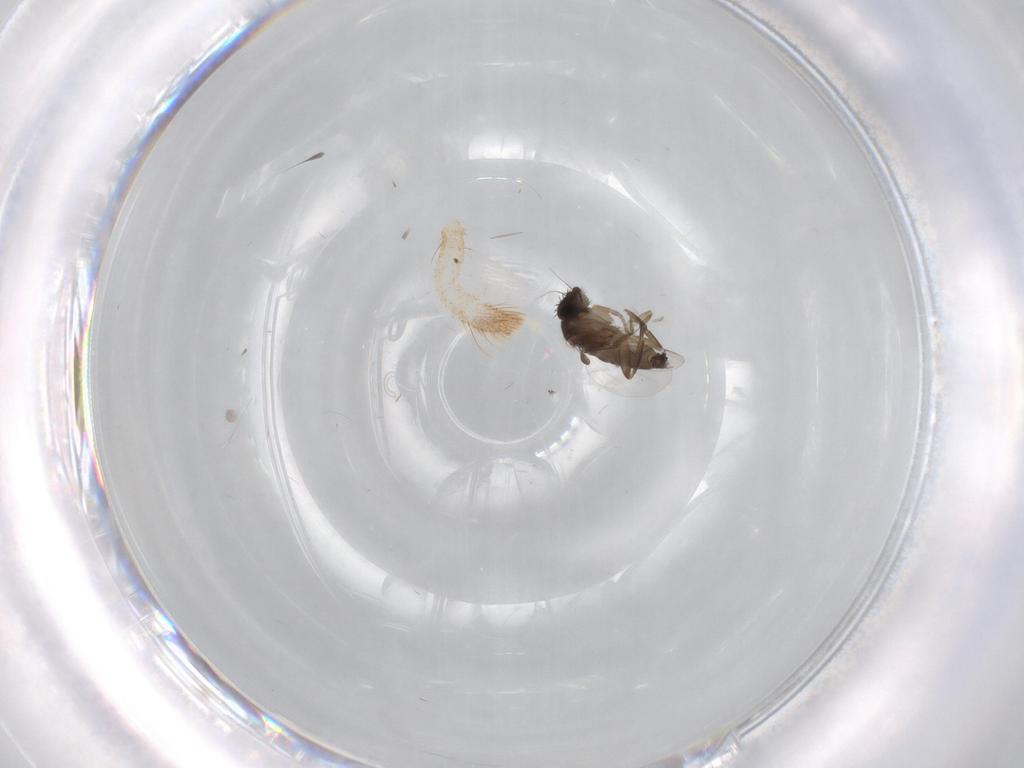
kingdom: Animalia
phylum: Arthropoda
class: Insecta
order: Diptera
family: Phoridae
